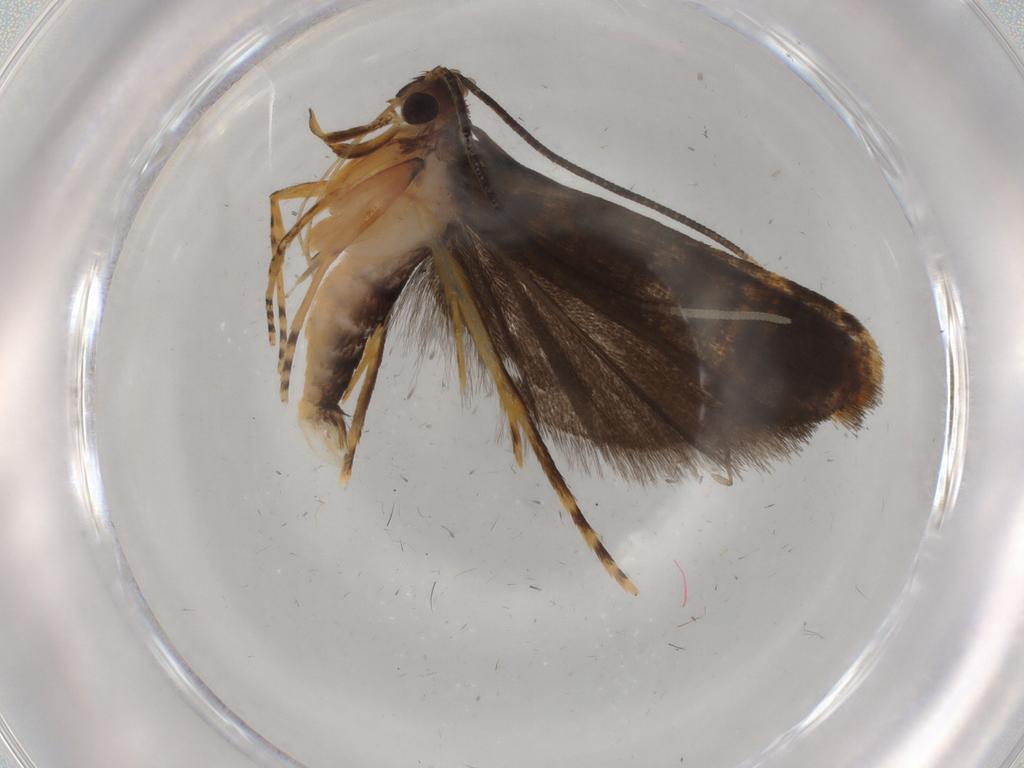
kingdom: Animalia
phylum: Arthropoda
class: Insecta
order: Lepidoptera
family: Cosmopterigidae
